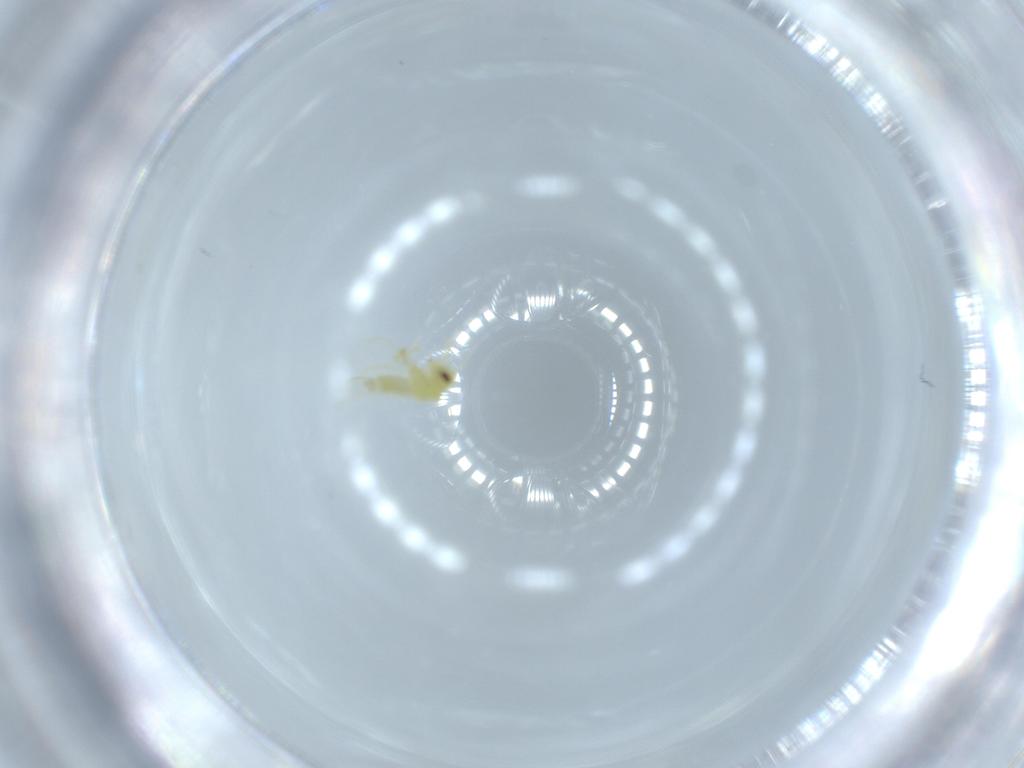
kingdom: Animalia
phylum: Arthropoda
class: Insecta
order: Hemiptera
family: Aleyrodidae
